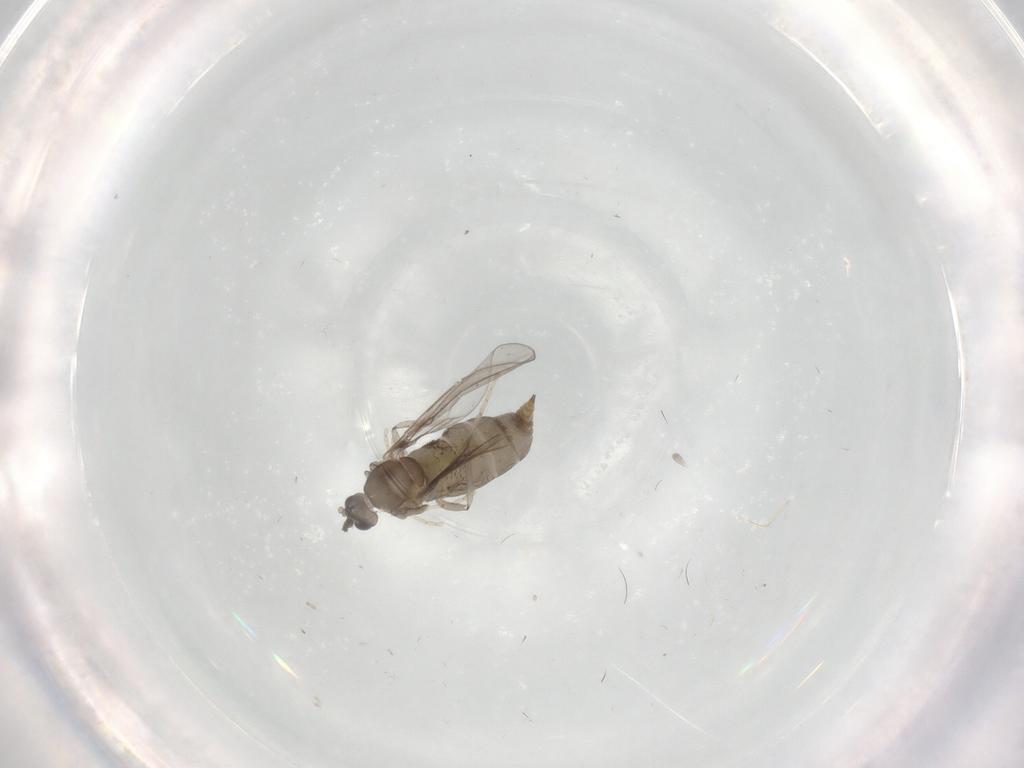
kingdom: Animalia
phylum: Arthropoda
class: Insecta
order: Diptera
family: Cecidomyiidae
